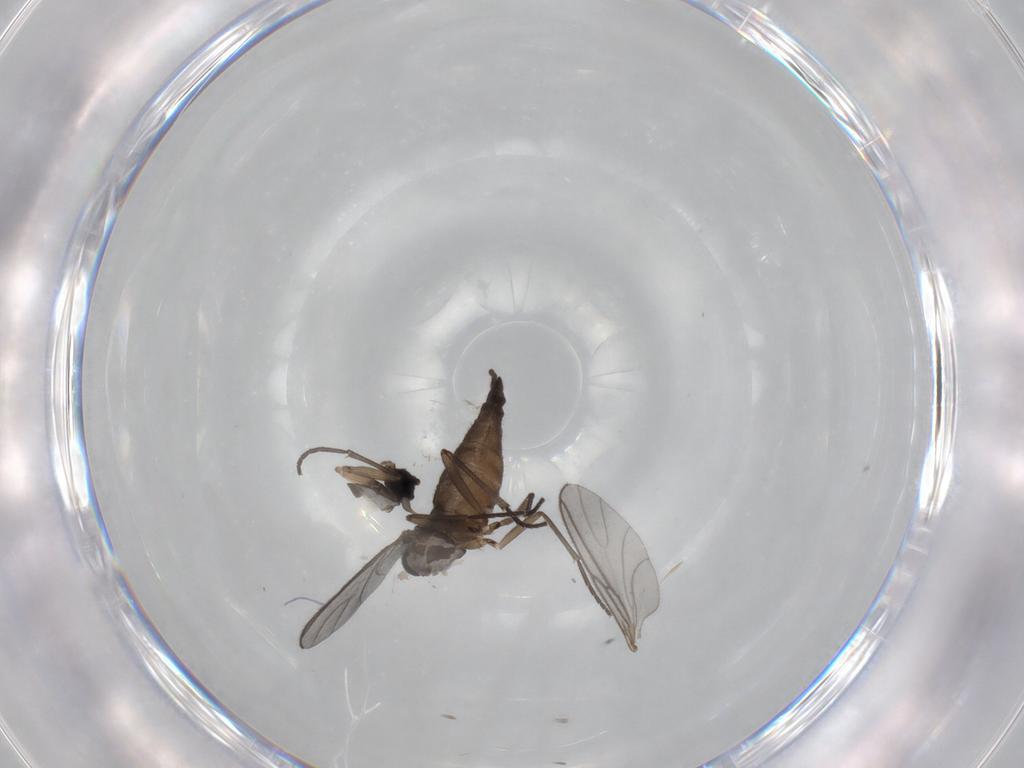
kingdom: Animalia
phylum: Arthropoda
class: Insecta
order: Diptera
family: Sciaridae
